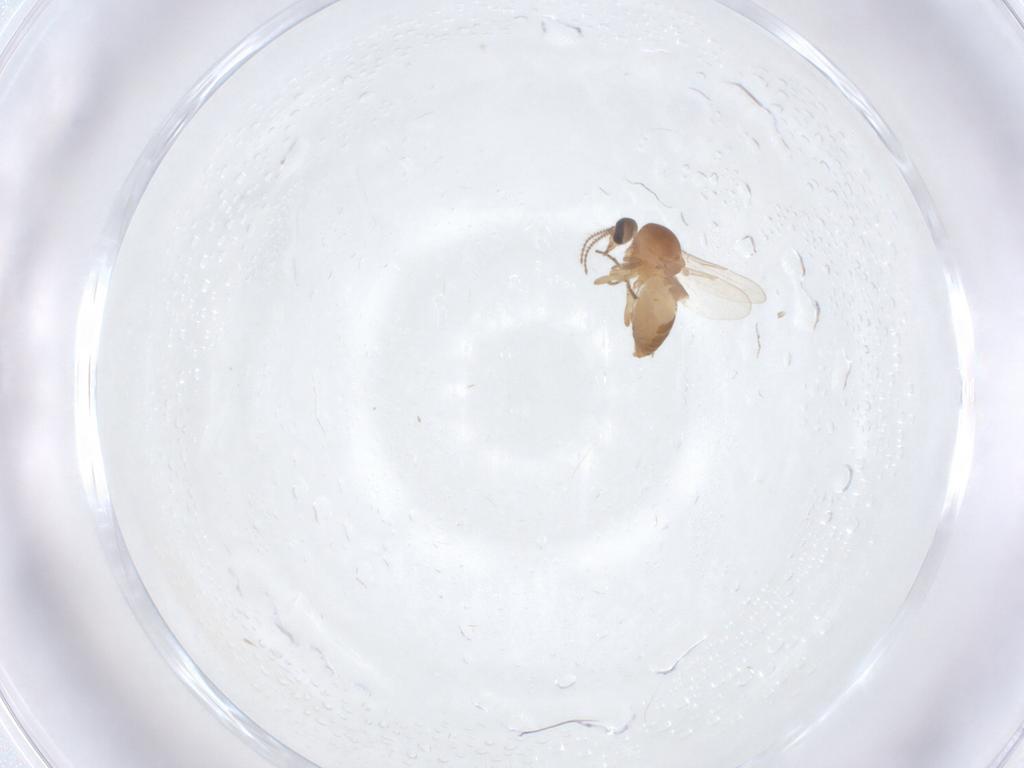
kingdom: Animalia
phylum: Arthropoda
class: Insecta
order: Diptera
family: Ceratopogonidae
